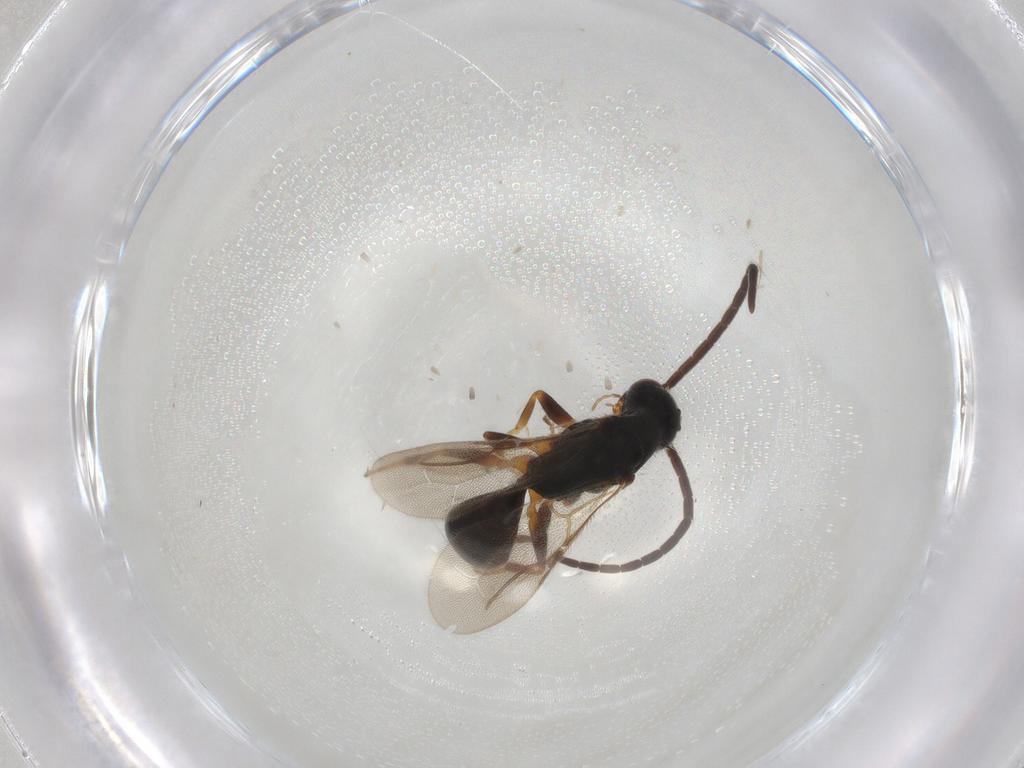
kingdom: Animalia
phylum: Arthropoda
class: Insecta
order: Hymenoptera
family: Bethylidae
